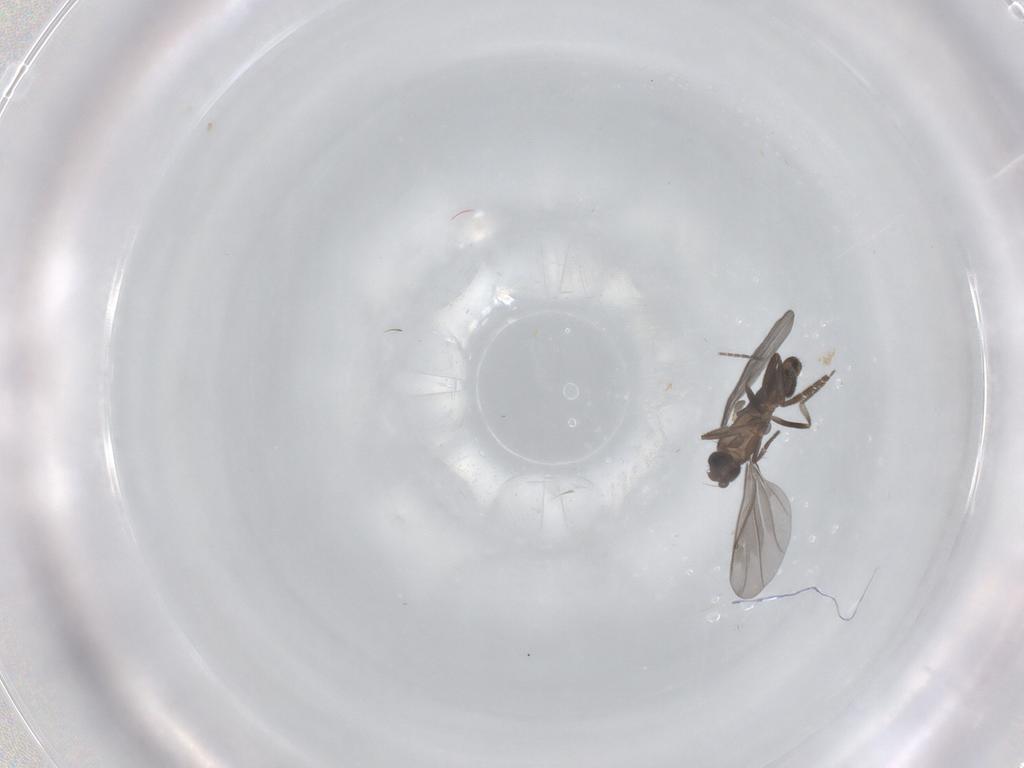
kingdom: Animalia
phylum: Arthropoda
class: Insecta
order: Diptera
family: Phoridae
